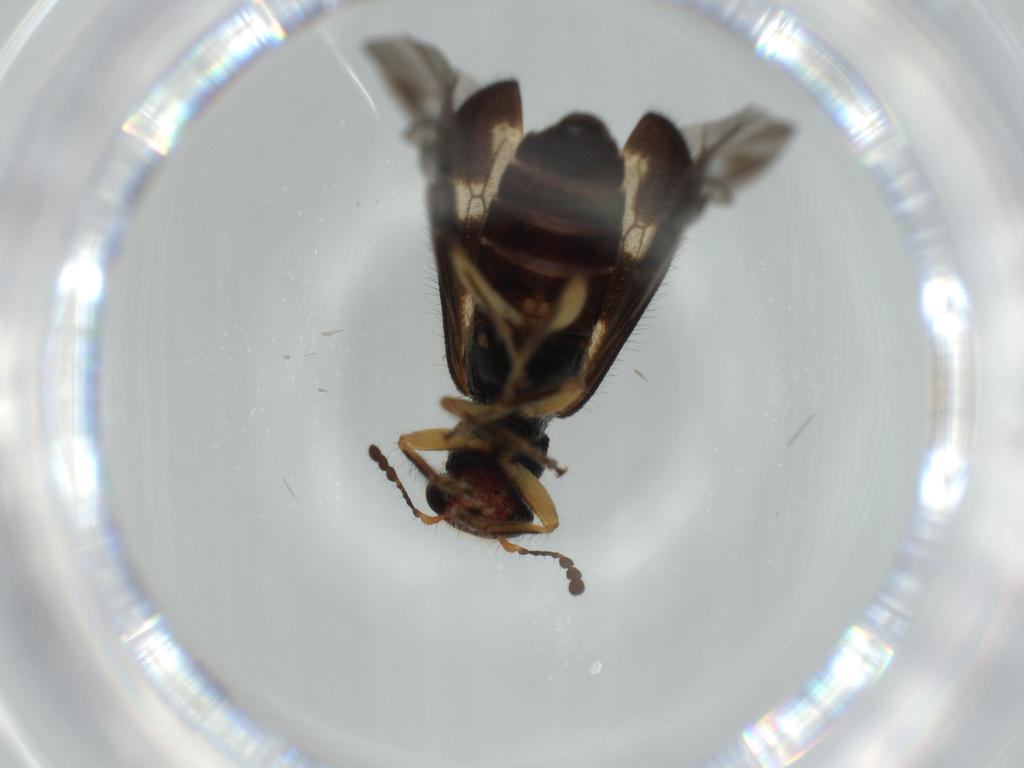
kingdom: Animalia
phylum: Arthropoda
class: Insecta
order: Coleoptera
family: Cleridae
